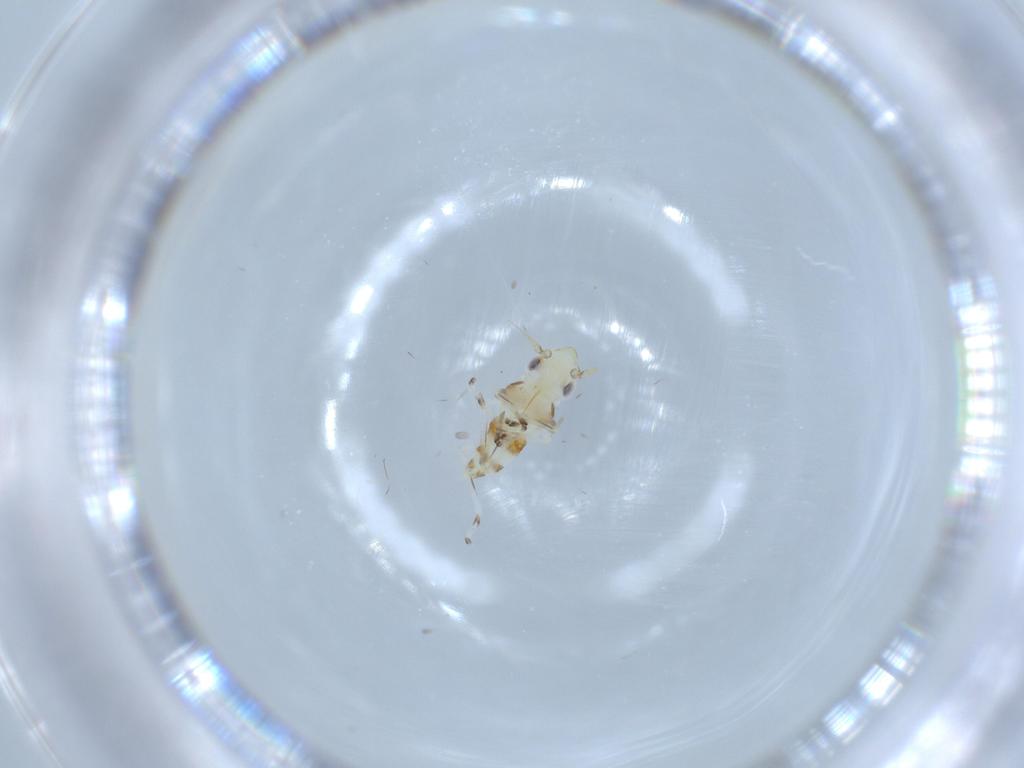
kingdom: Animalia
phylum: Arthropoda
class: Insecta
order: Hemiptera
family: Cicadellidae
